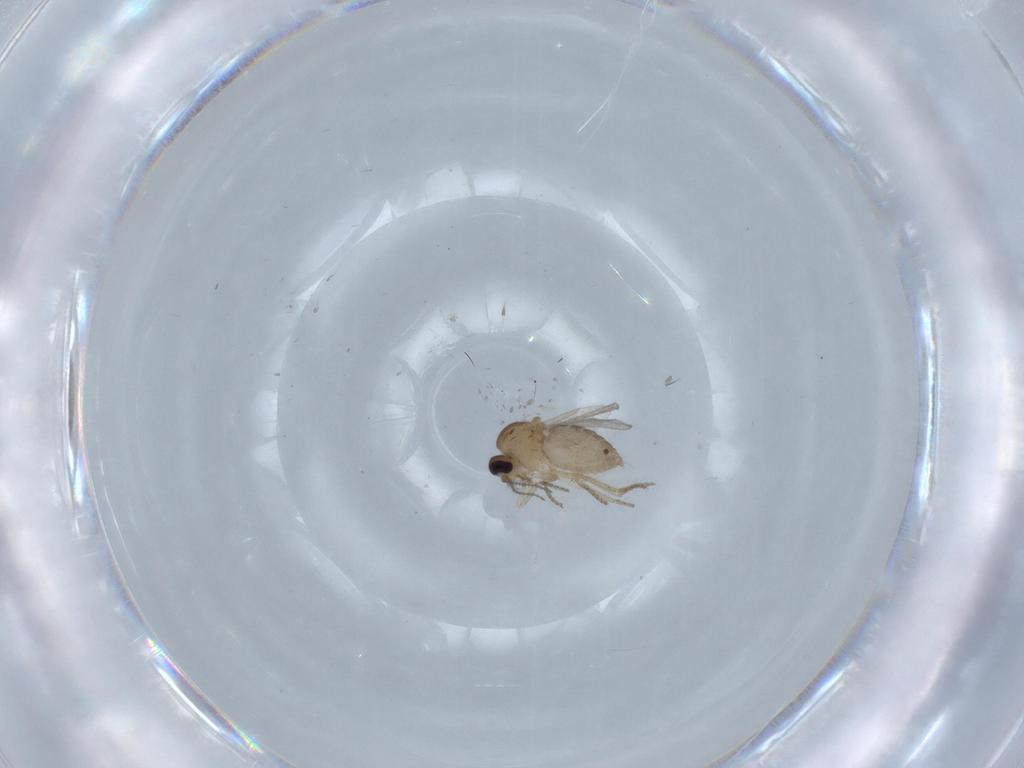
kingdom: Animalia
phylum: Arthropoda
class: Insecta
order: Diptera
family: Ceratopogonidae
